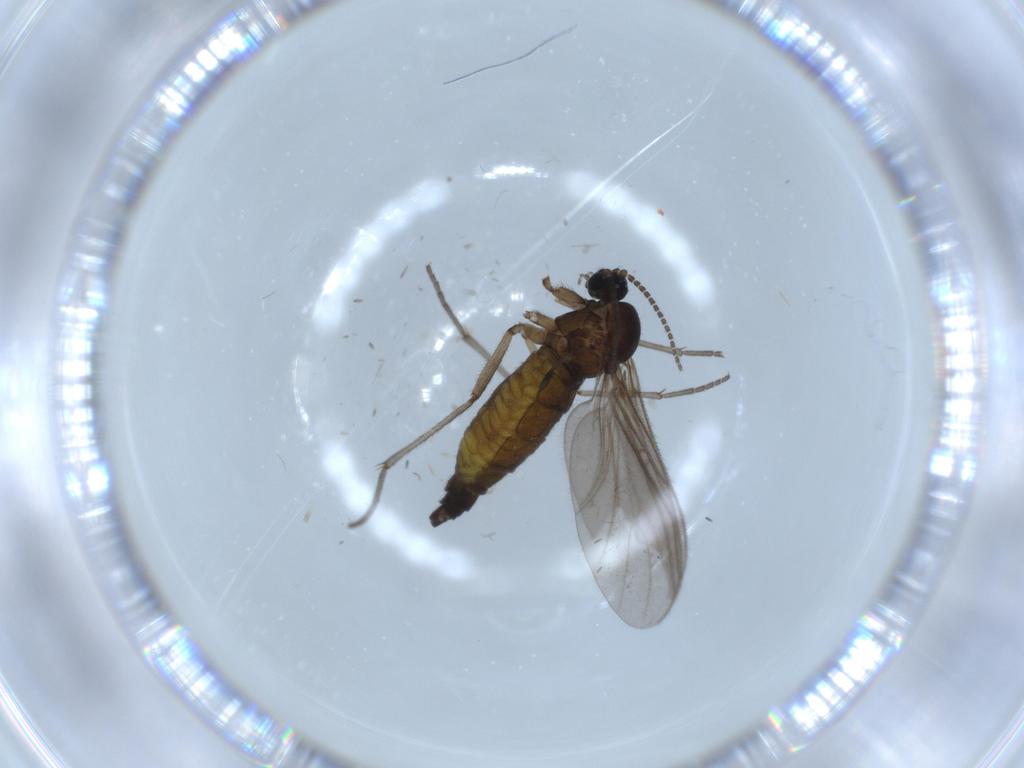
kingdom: Animalia
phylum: Arthropoda
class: Insecta
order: Diptera
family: Sciaridae
